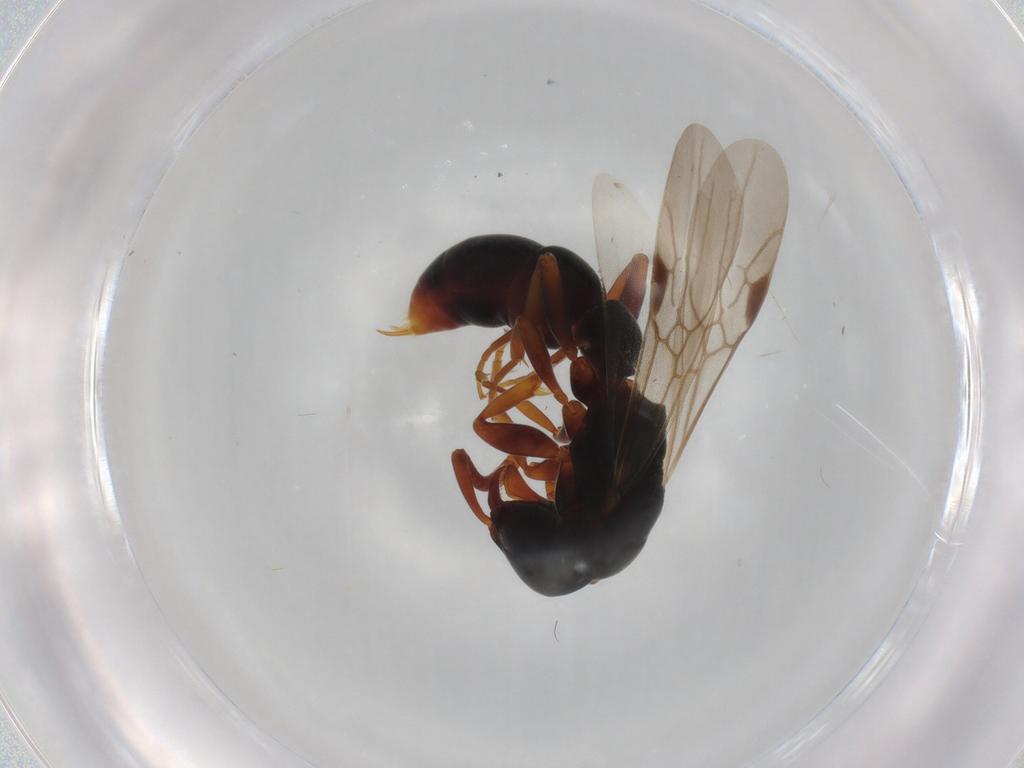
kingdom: Animalia
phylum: Arthropoda
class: Insecta
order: Hymenoptera
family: Formicidae
